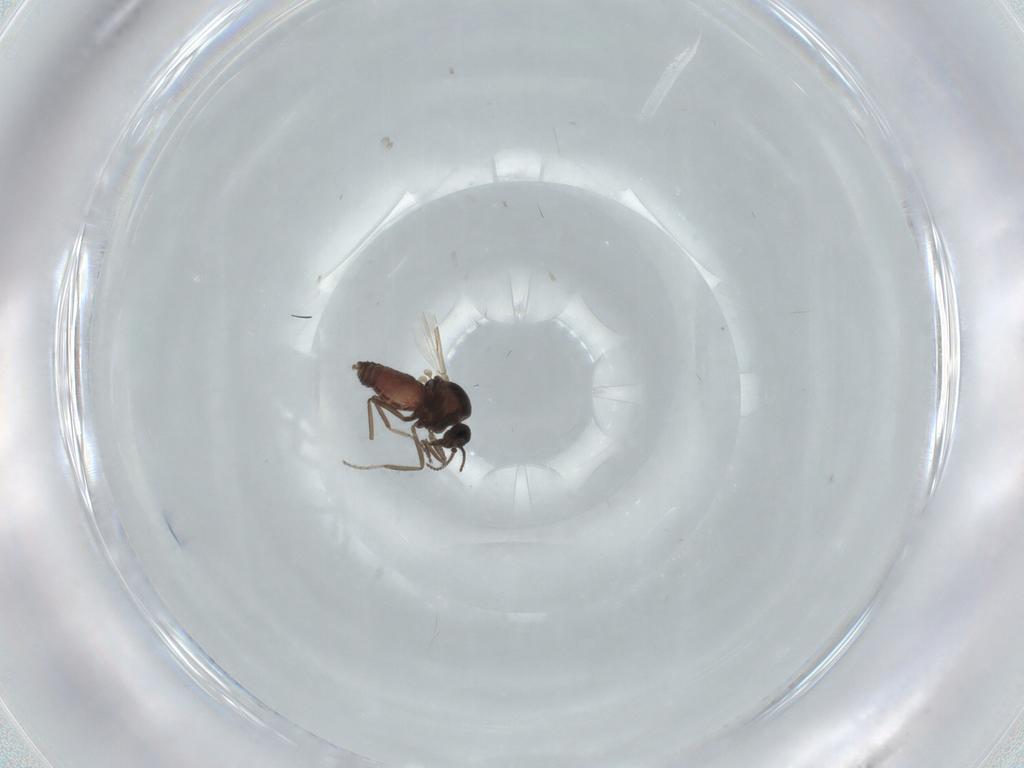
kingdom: Animalia
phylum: Arthropoda
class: Insecta
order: Diptera
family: Ceratopogonidae
